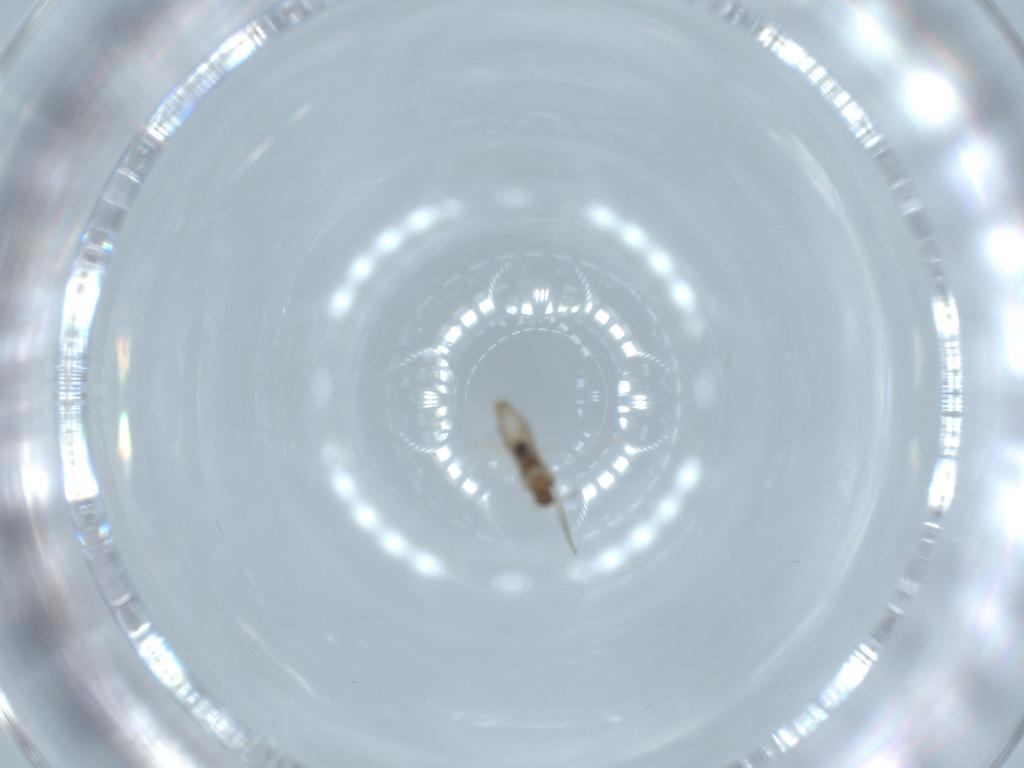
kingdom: Animalia
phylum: Arthropoda
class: Insecta
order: Diptera
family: Cecidomyiidae
